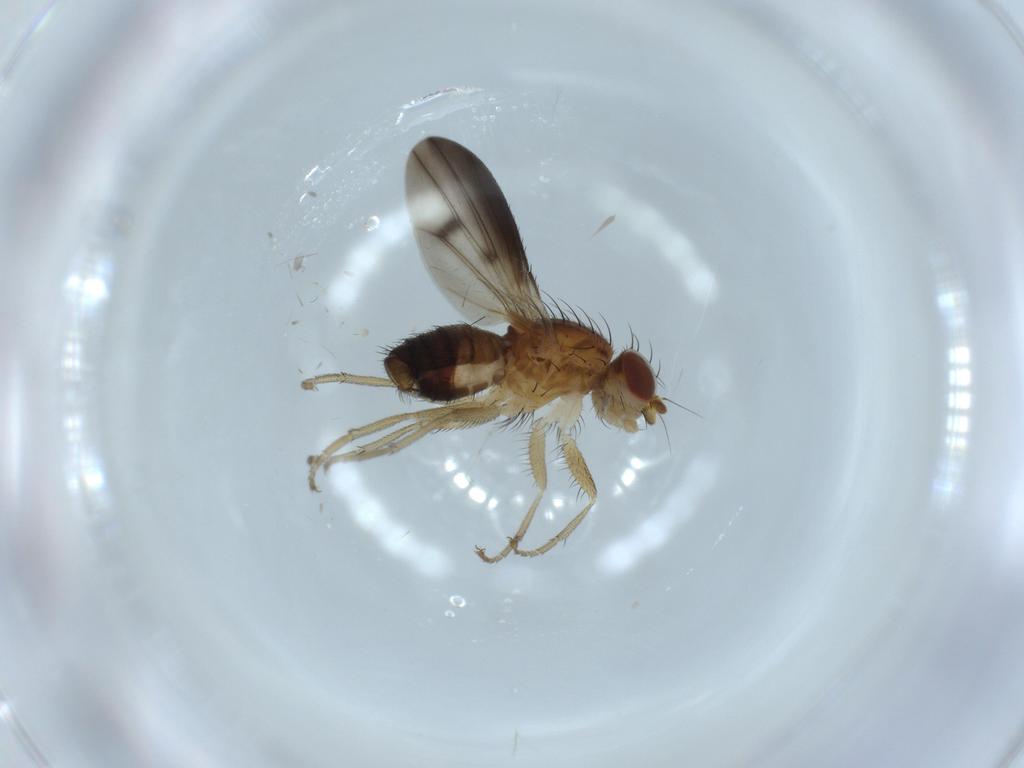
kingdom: Animalia
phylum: Arthropoda
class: Insecta
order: Diptera
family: Heleomyzidae
